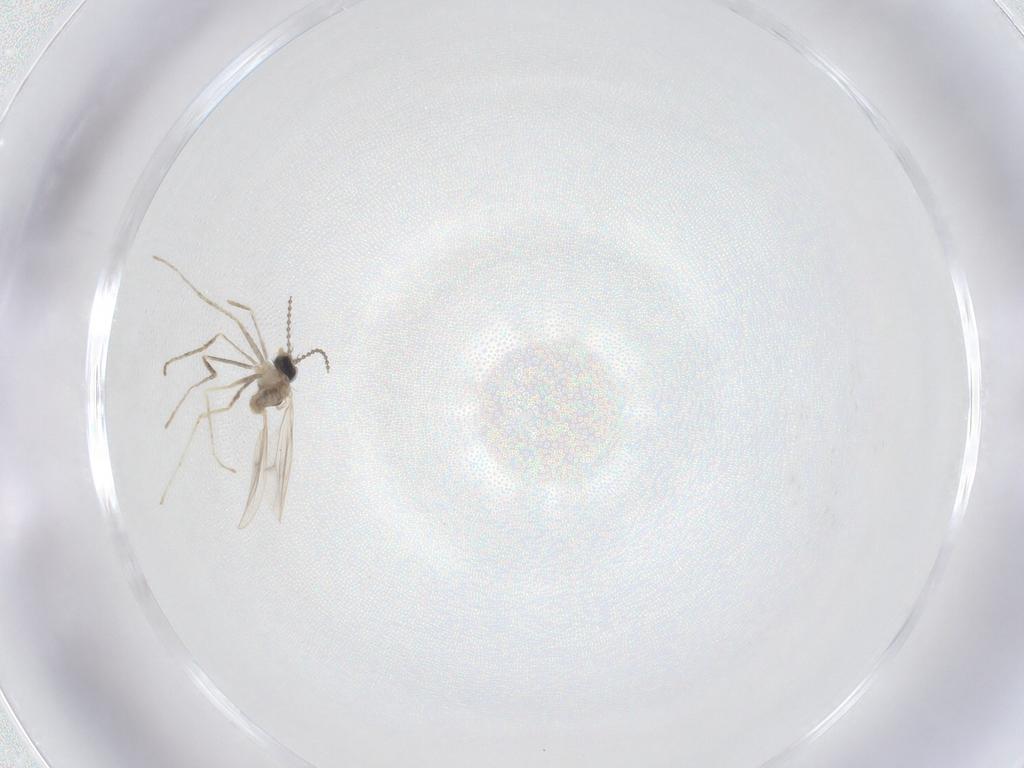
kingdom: Animalia
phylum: Arthropoda
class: Insecta
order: Diptera
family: Cecidomyiidae
